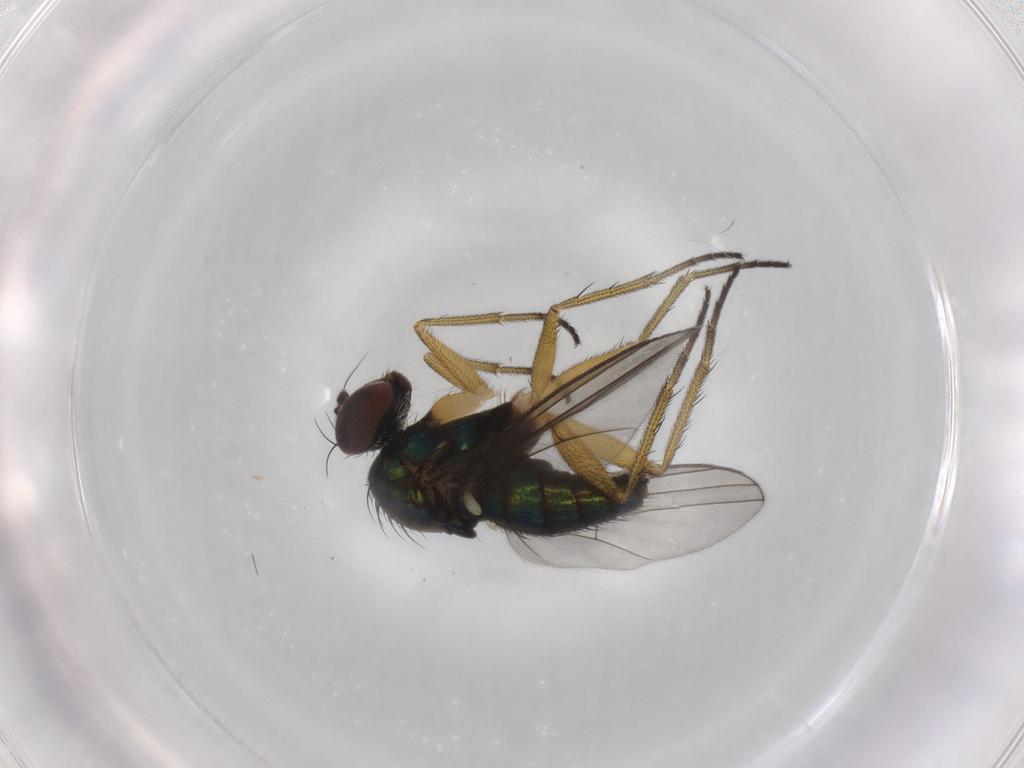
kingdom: Animalia
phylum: Arthropoda
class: Insecta
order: Diptera
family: Dolichopodidae
